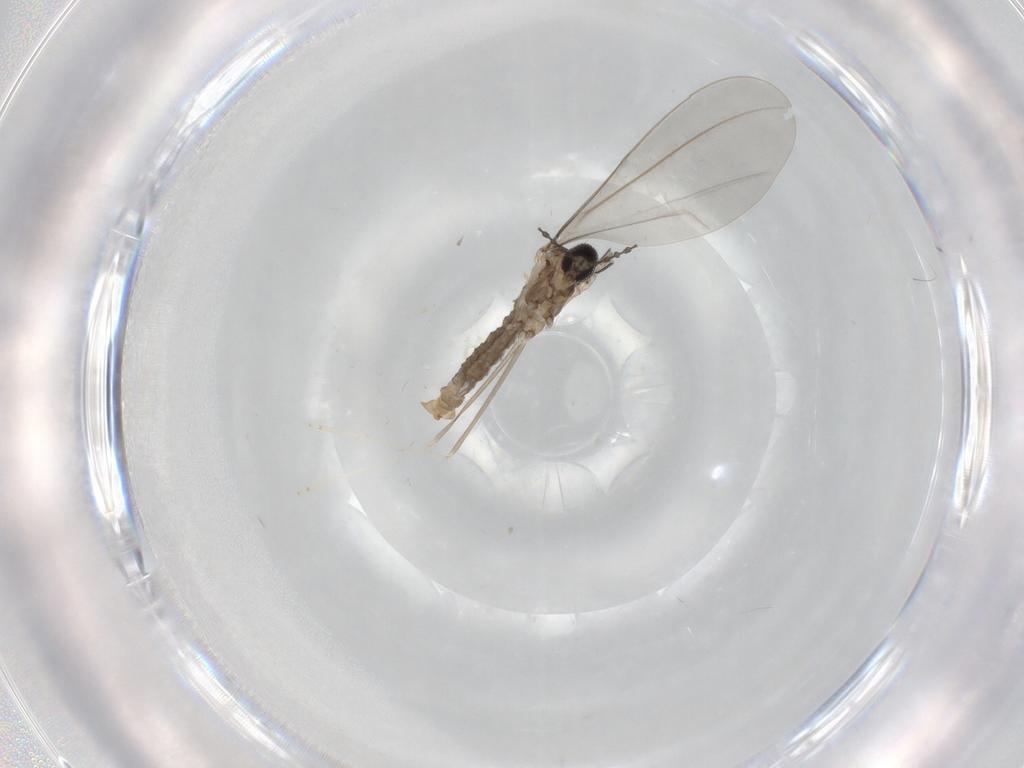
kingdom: Animalia
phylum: Arthropoda
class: Insecta
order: Diptera
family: Cecidomyiidae
